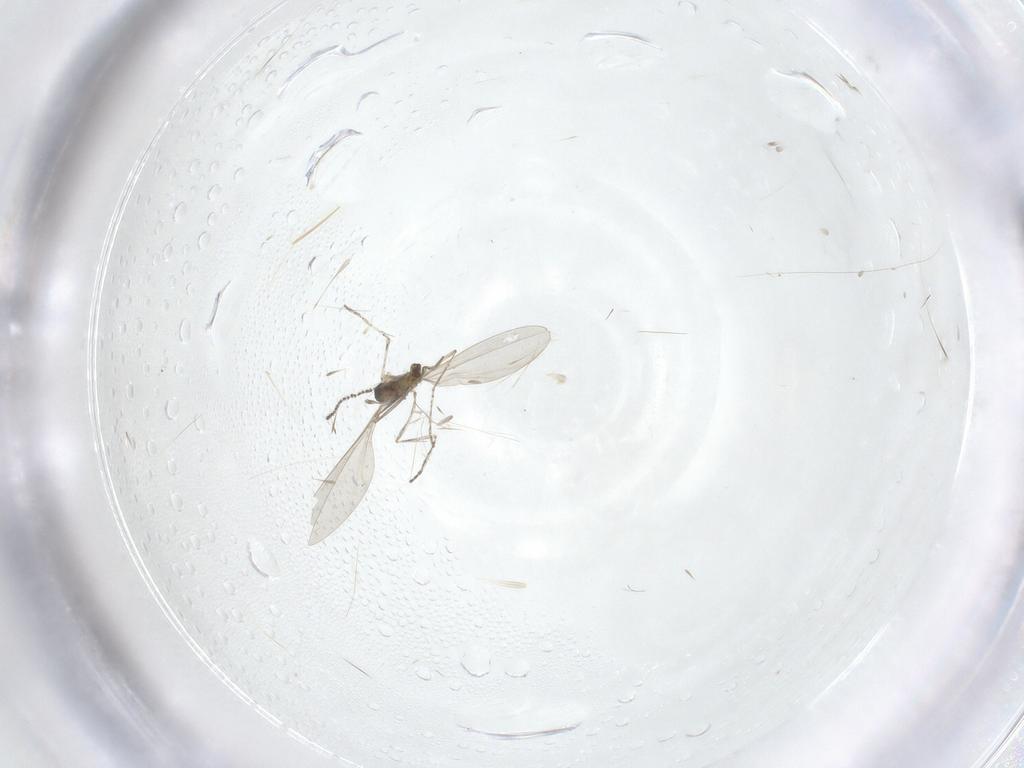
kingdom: Animalia
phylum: Arthropoda
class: Insecta
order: Diptera
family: Cecidomyiidae
